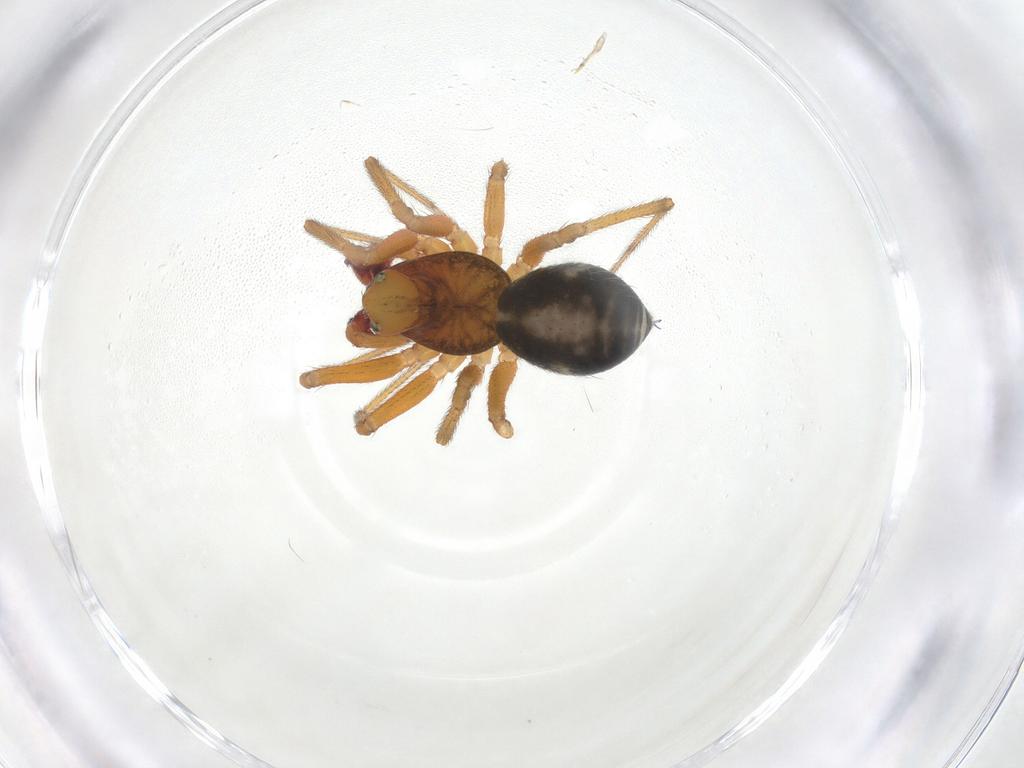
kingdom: Animalia
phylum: Arthropoda
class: Arachnida
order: Araneae
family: Linyphiidae
